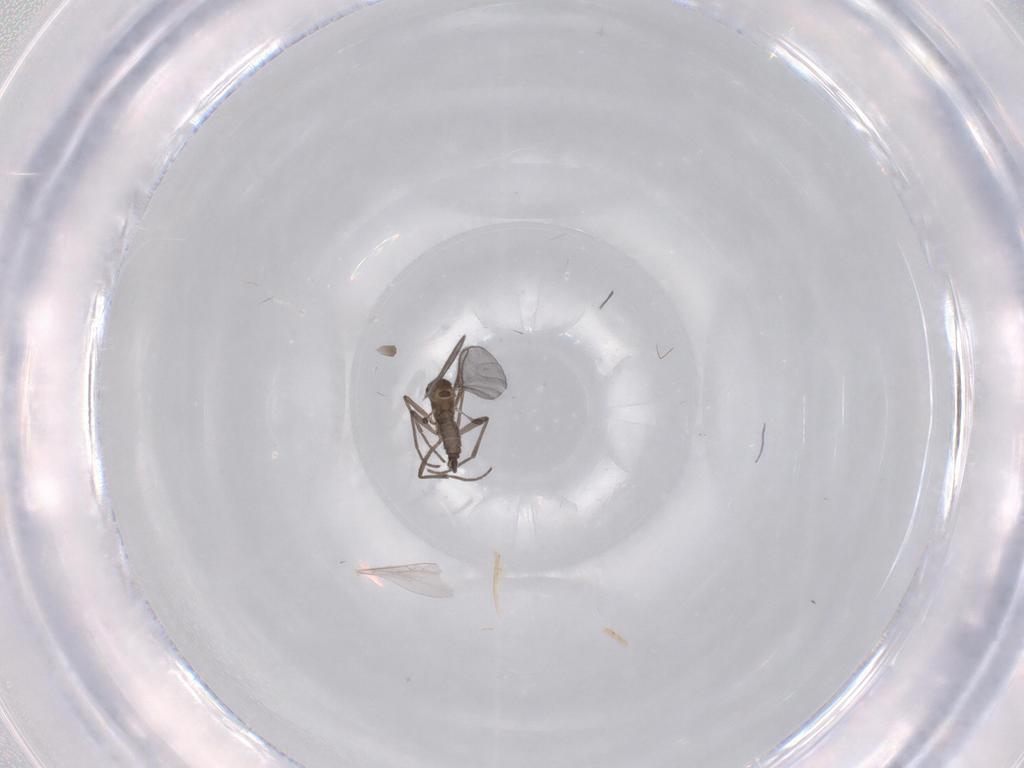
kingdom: Animalia
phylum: Arthropoda
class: Insecta
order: Diptera
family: Sciaridae
